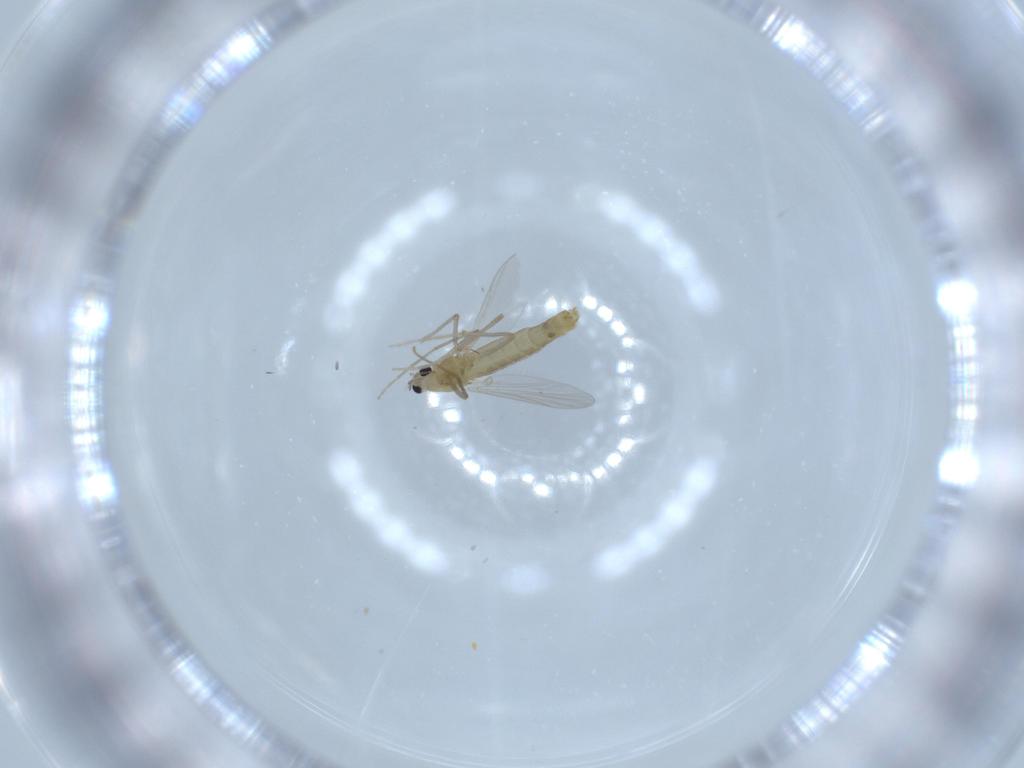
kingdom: Animalia
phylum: Arthropoda
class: Insecta
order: Diptera
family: Chironomidae
